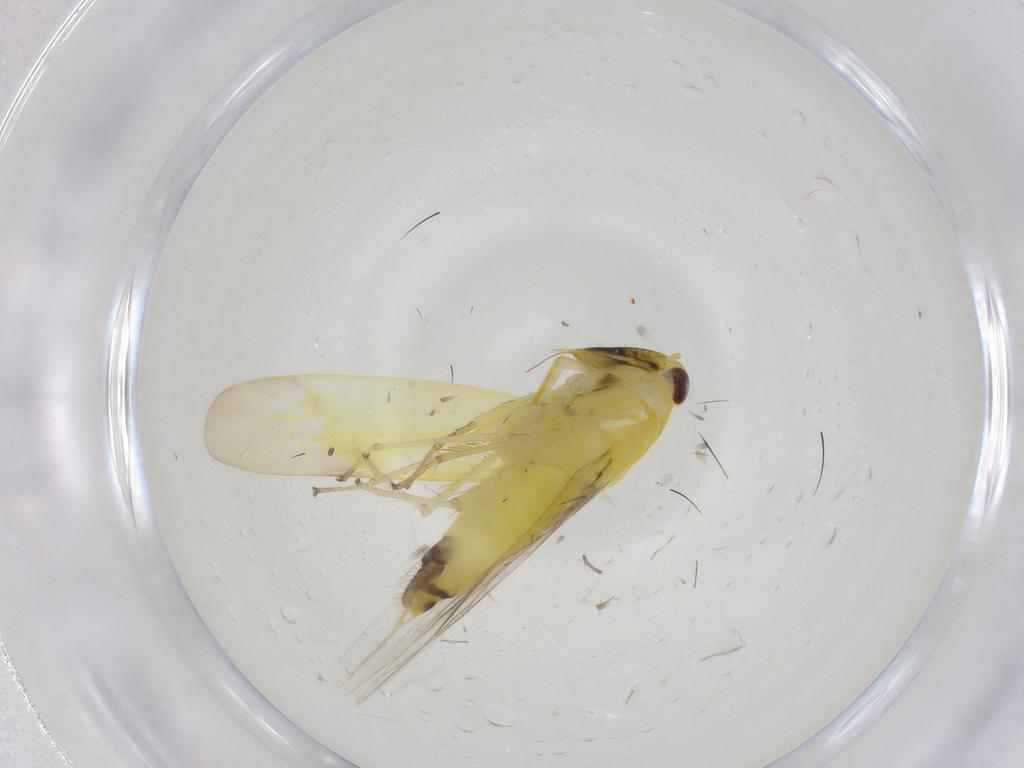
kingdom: Animalia
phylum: Arthropoda
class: Insecta
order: Hemiptera
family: Cicadellidae
